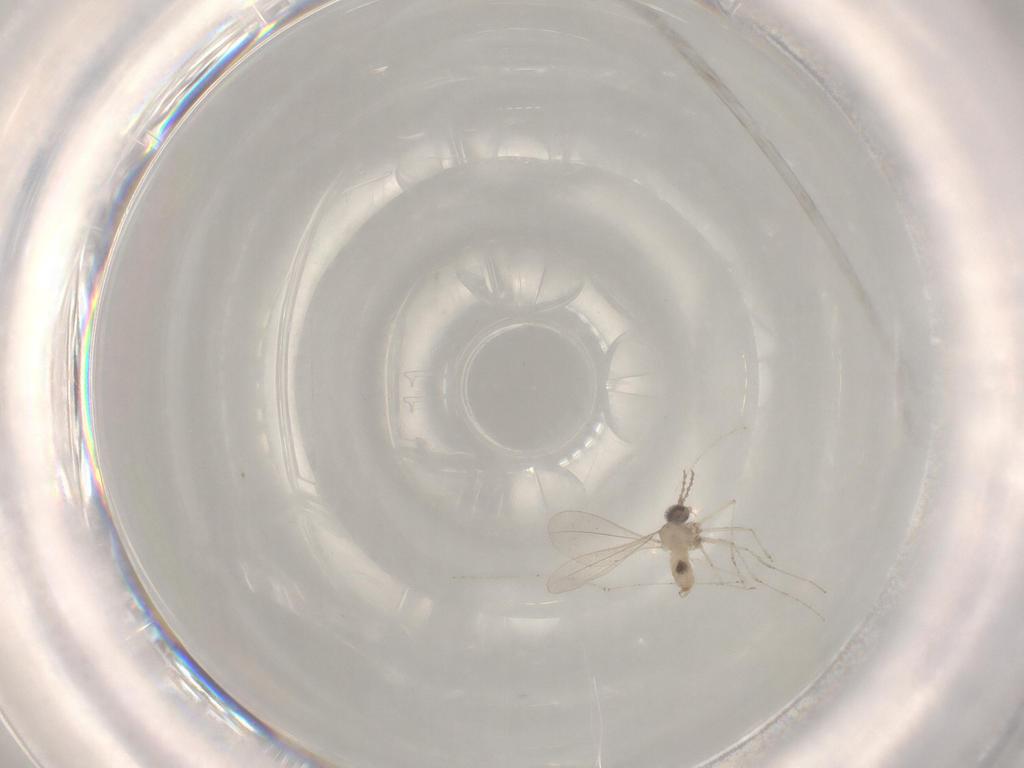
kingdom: Animalia
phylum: Arthropoda
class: Insecta
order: Diptera
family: Stratiomyidae
